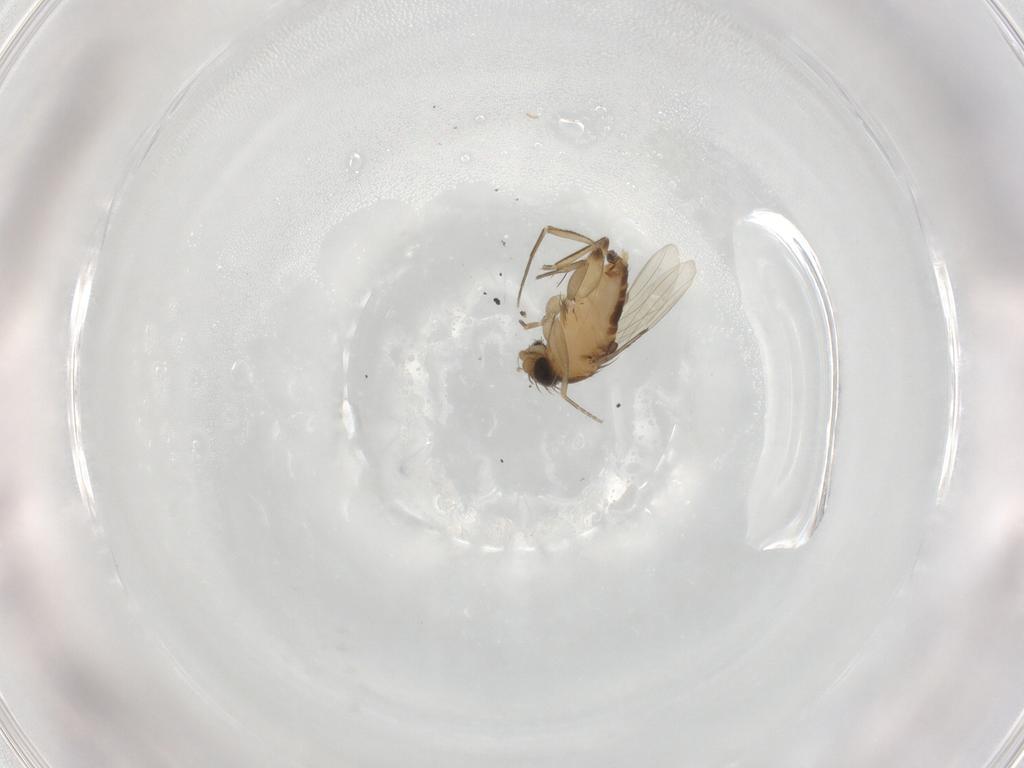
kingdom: Animalia
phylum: Arthropoda
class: Insecta
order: Diptera
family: Phoridae
